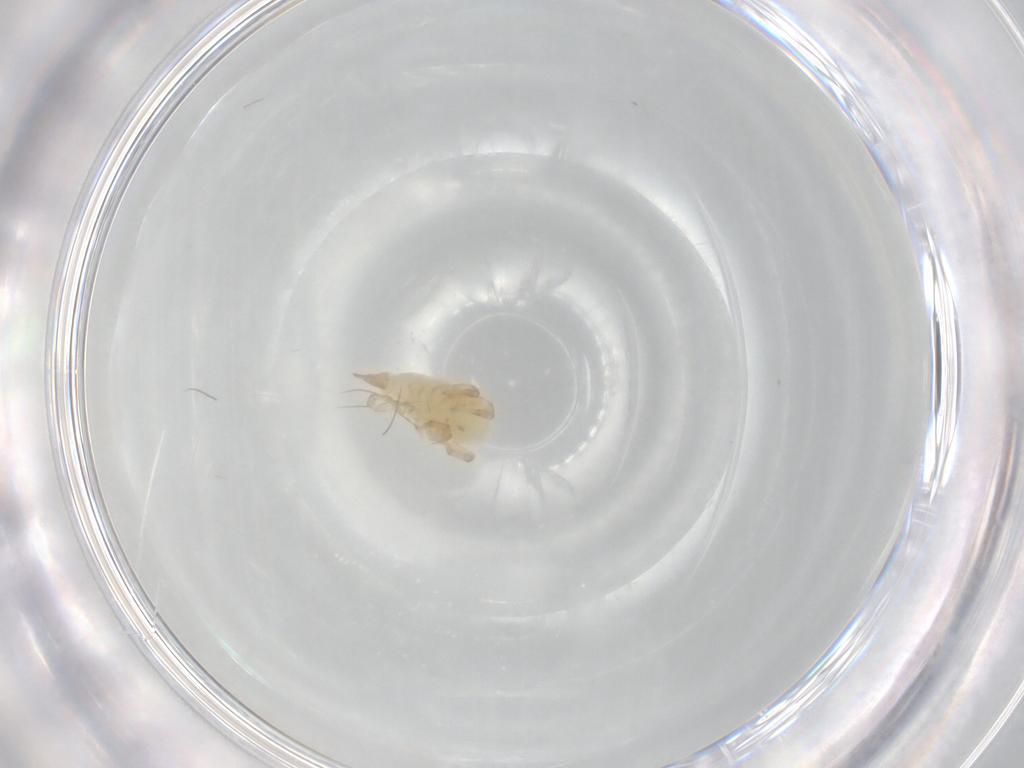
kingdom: Animalia
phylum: Arthropoda
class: Arachnida
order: Trombidiformes
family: Bdellidae
